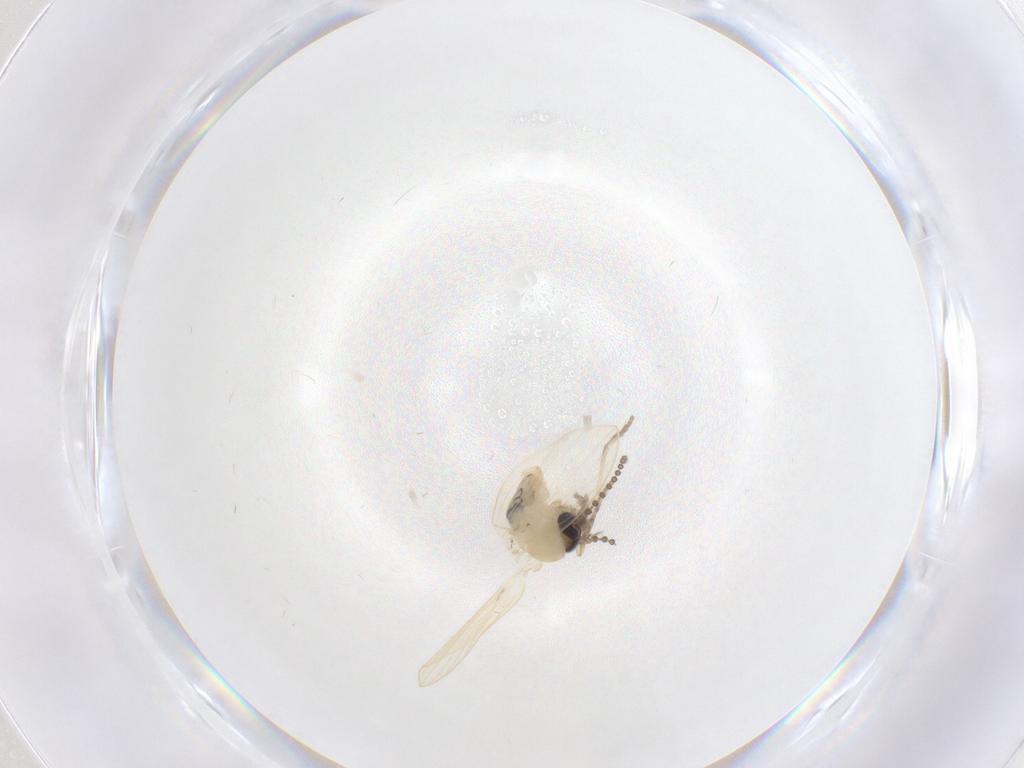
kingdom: Animalia
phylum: Arthropoda
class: Insecta
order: Diptera
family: Psychodidae
